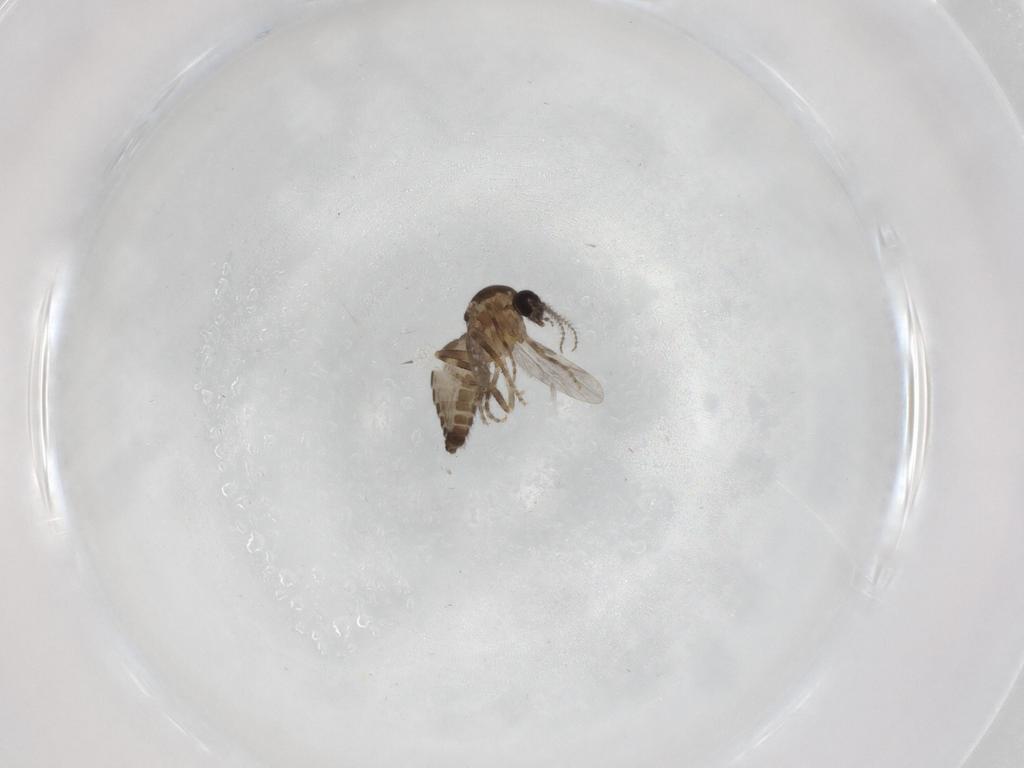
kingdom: Animalia
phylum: Arthropoda
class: Insecta
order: Diptera
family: Ceratopogonidae
